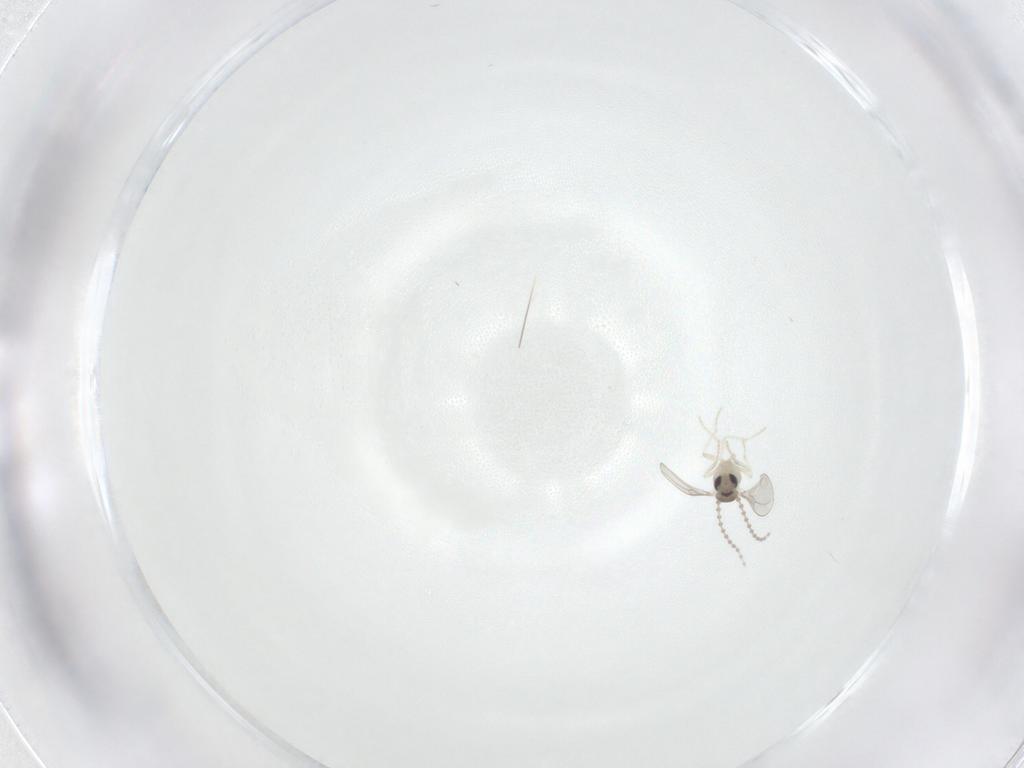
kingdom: Animalia
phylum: Arthropoda
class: Insecta
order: Diptera
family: Cecidomyiidae
